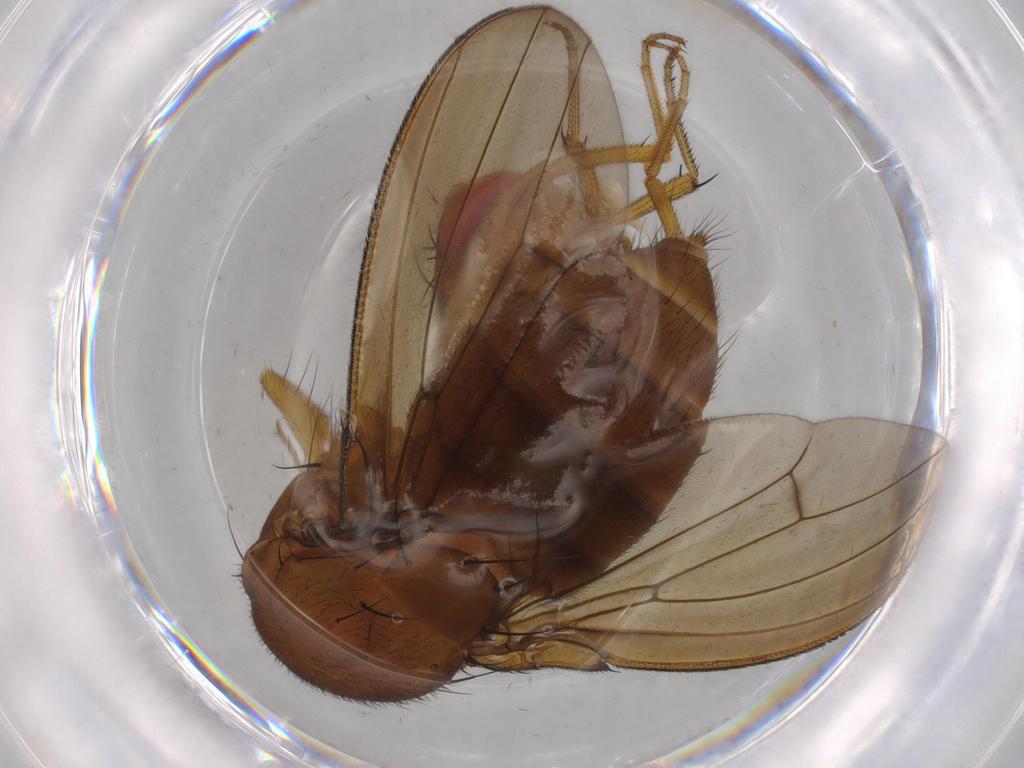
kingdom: Animalia
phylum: Arthropoda
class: Insecta
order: Diptera
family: Drosophilidae
